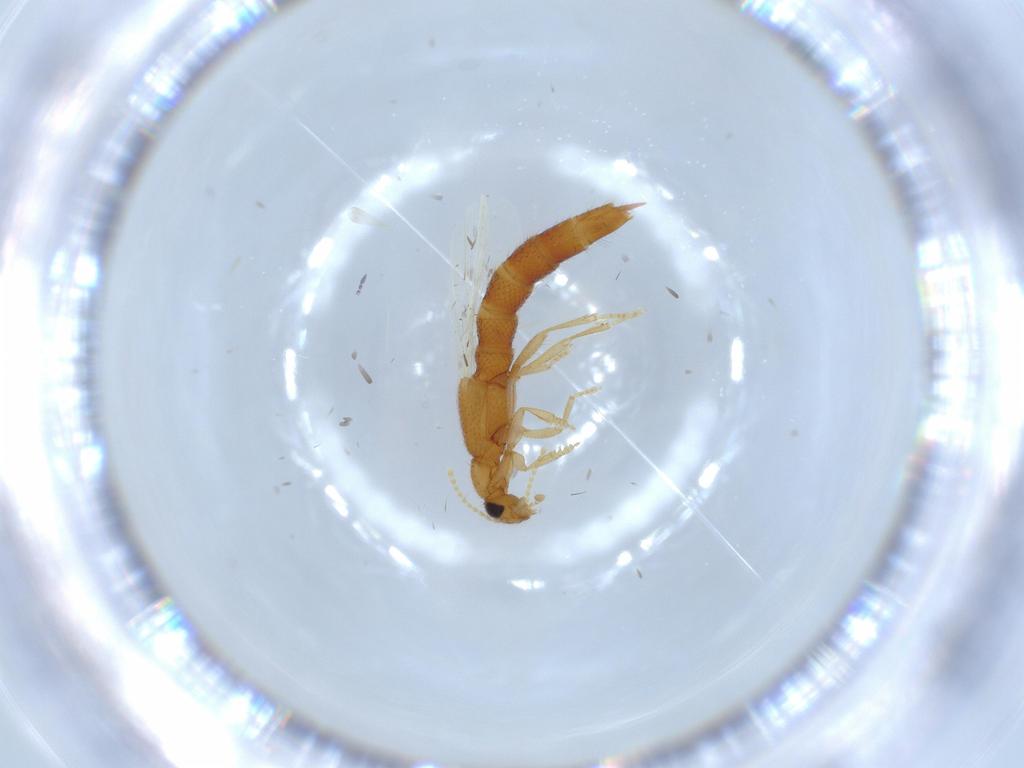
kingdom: Animalia
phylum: Arthropoda
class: Insecta
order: Coleoptera
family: Staphylinidae
